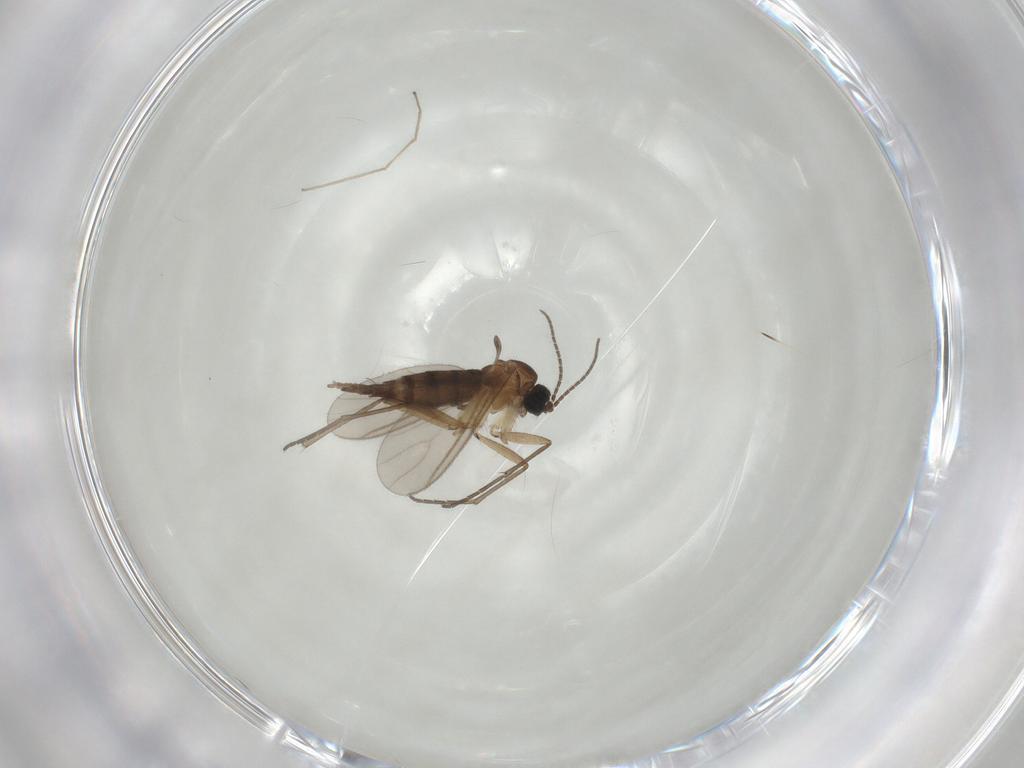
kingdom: Animalia
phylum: Arthropoda
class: Insecta
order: Diptera
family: Sciaridae
